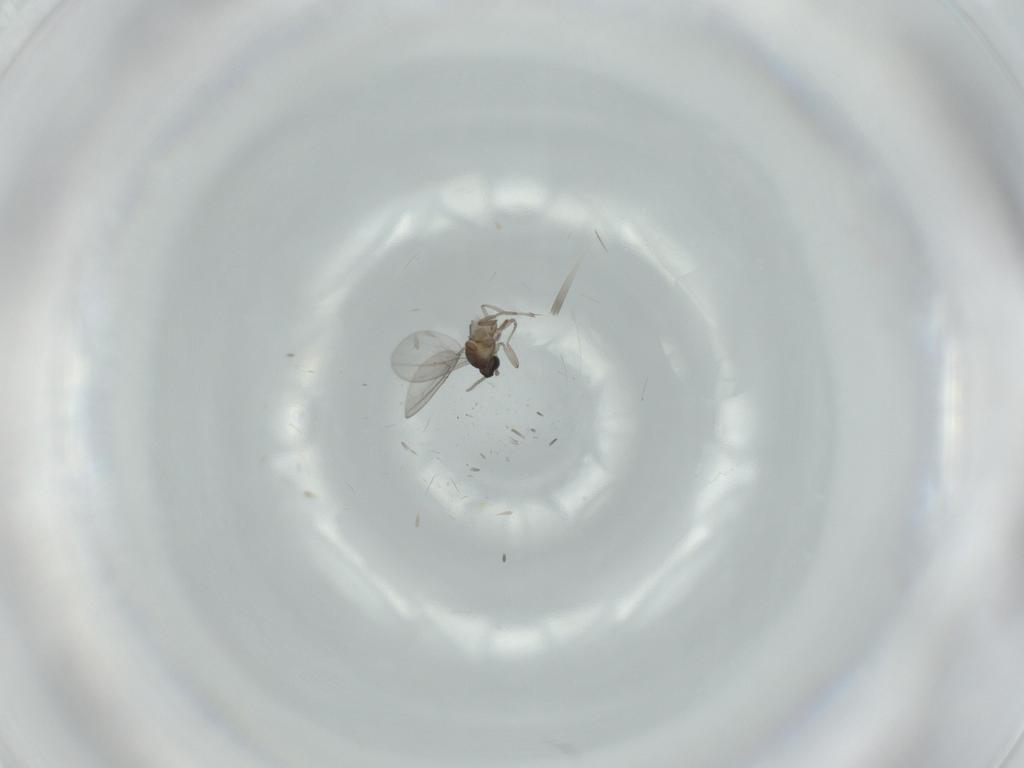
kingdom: Animalia
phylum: Arthropoda
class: Insecta
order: Diptera
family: Cecidomyiidae
